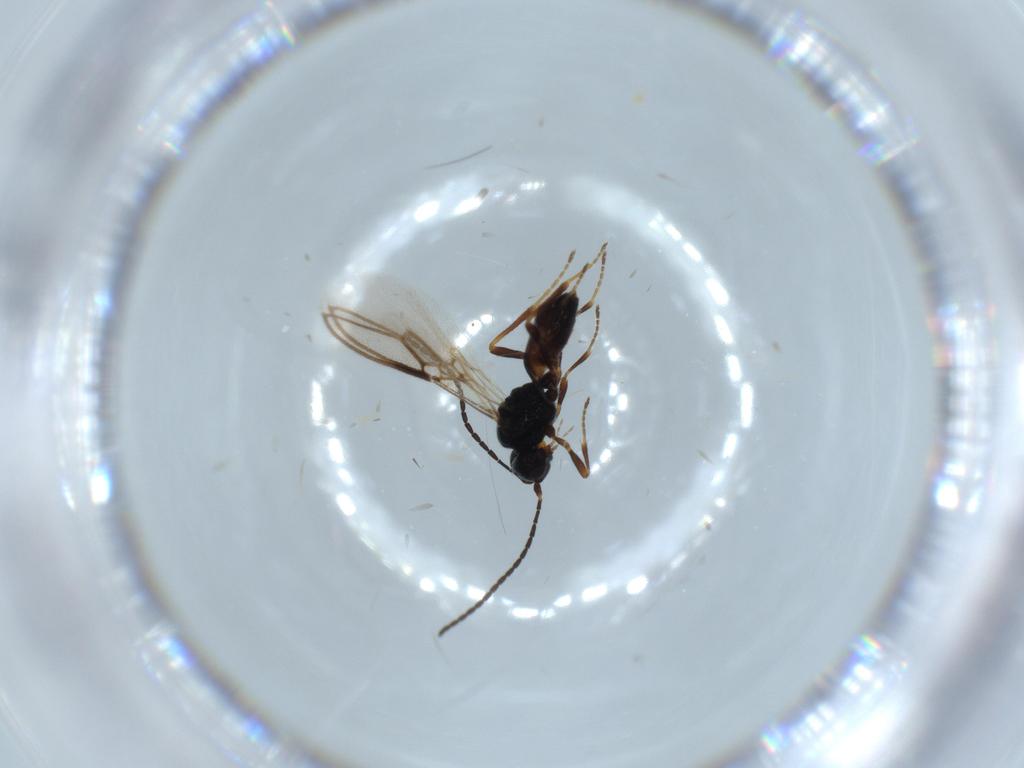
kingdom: Animalia
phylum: Arthropoda
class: Insecta
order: Hymenoptera
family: Braconidae
